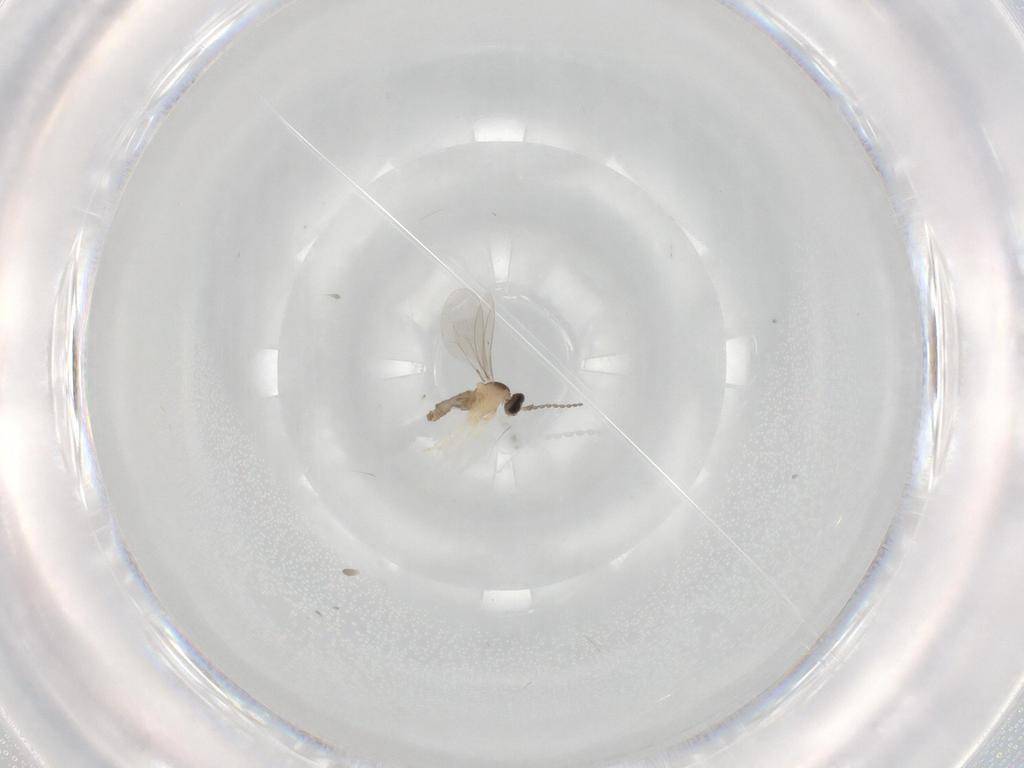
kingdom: Animalia
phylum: Arthropoda
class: Insecta
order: Diptera
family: Cecidomyiidae
